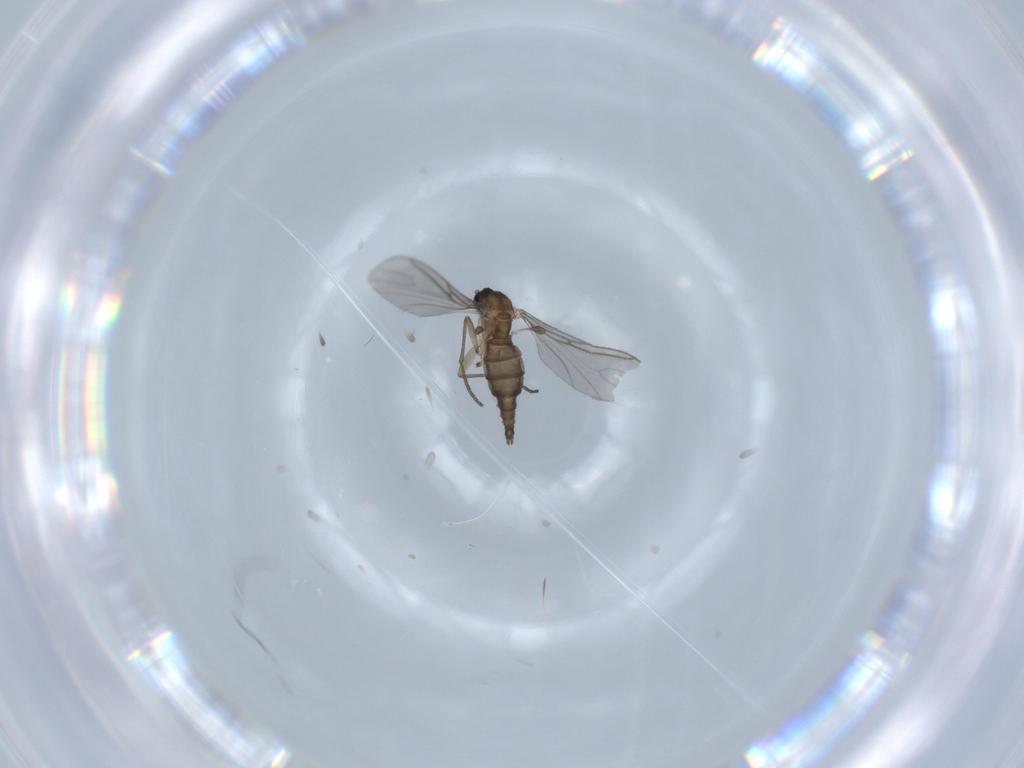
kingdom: Animalia
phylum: Arthropoda
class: Insecta
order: Diptera
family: Sciaridae
